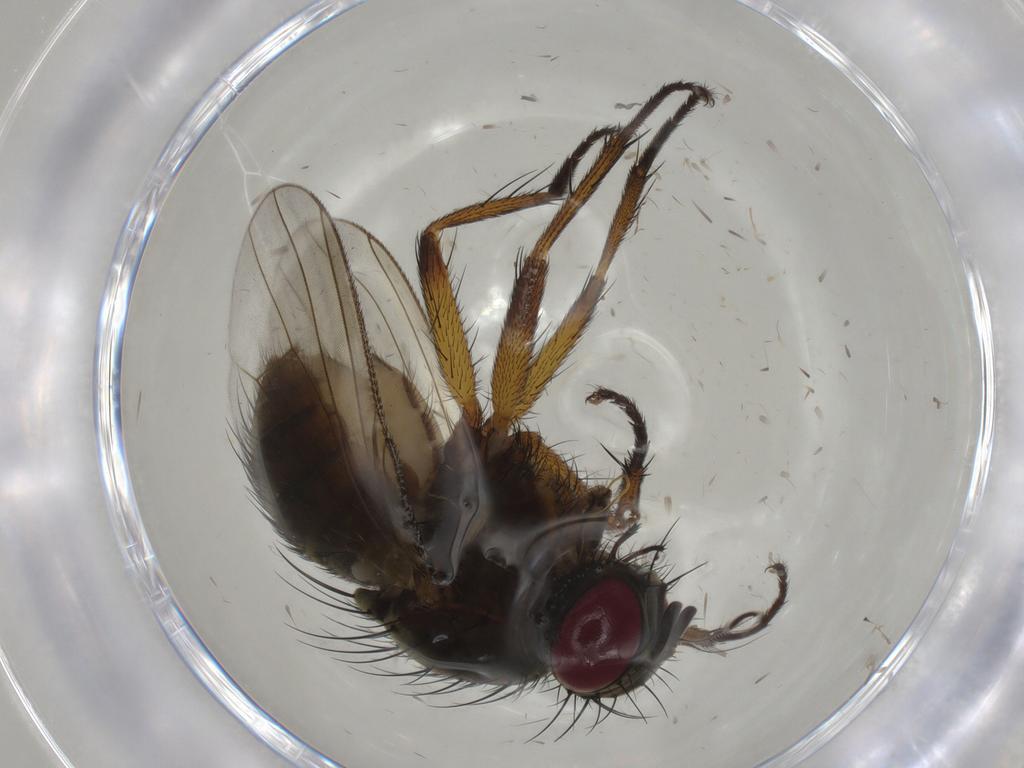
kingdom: Animalia
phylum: Arthropoda
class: Insecta
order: Diptera
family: Muscidae
